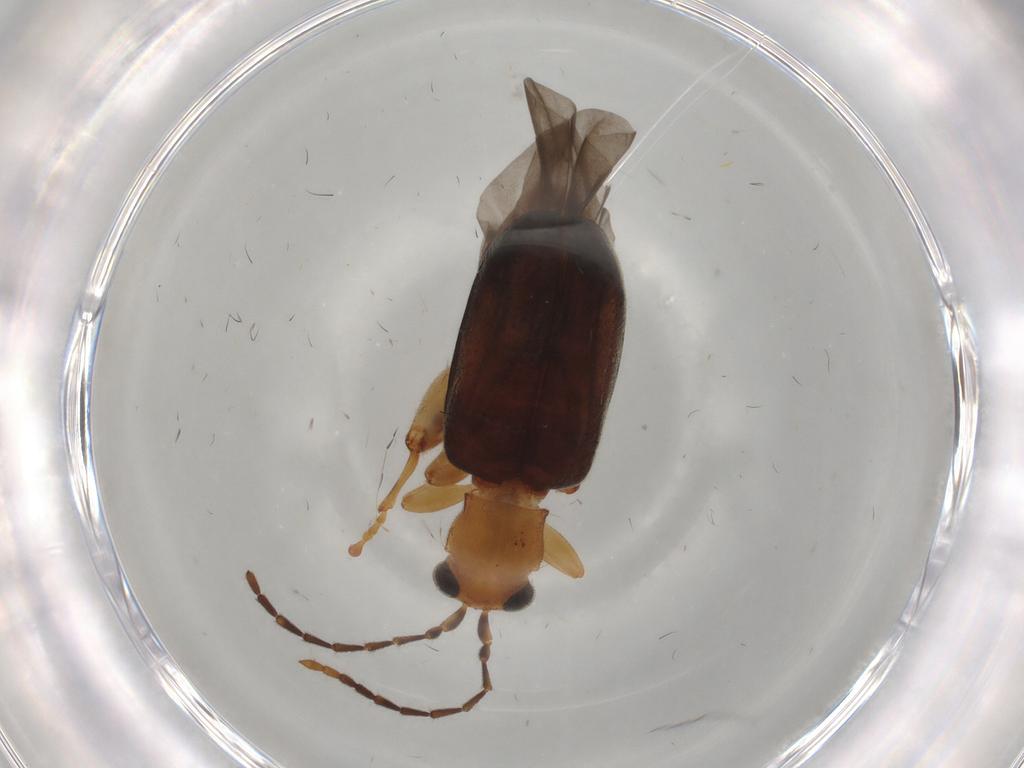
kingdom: Animalia
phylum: Arthropoda
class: Insecta
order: Coleoptera
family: Chrysomelidae
